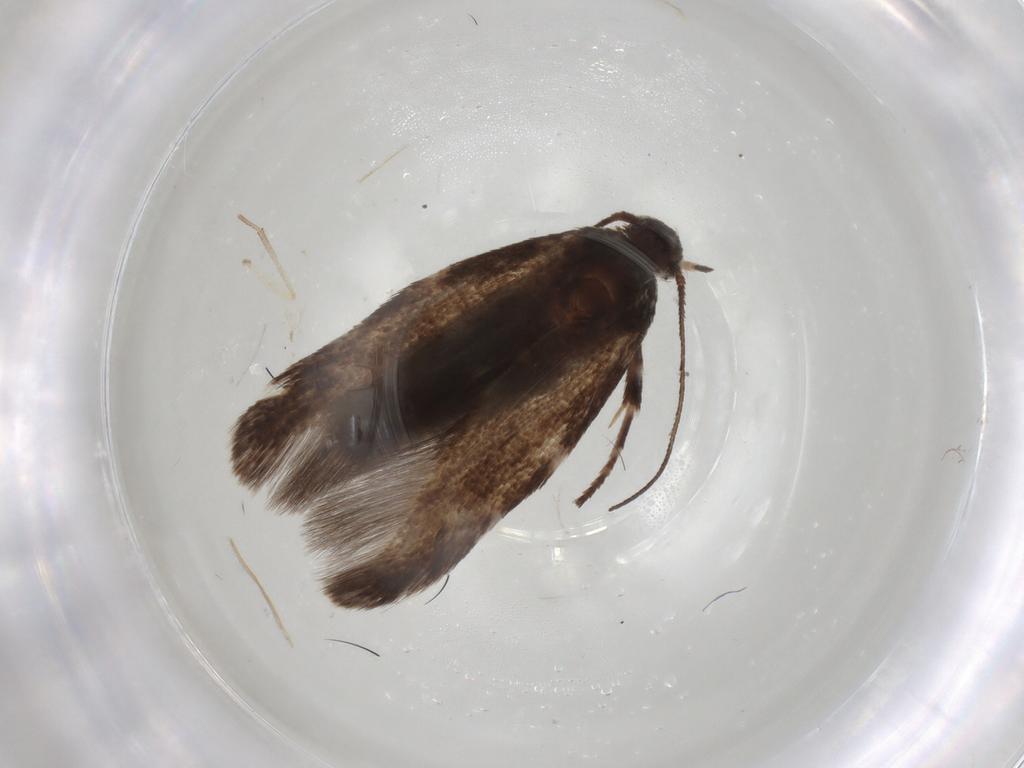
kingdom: Animalia
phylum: Arthropoda
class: Insecta
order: Lepidoptera
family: Scythrididae
